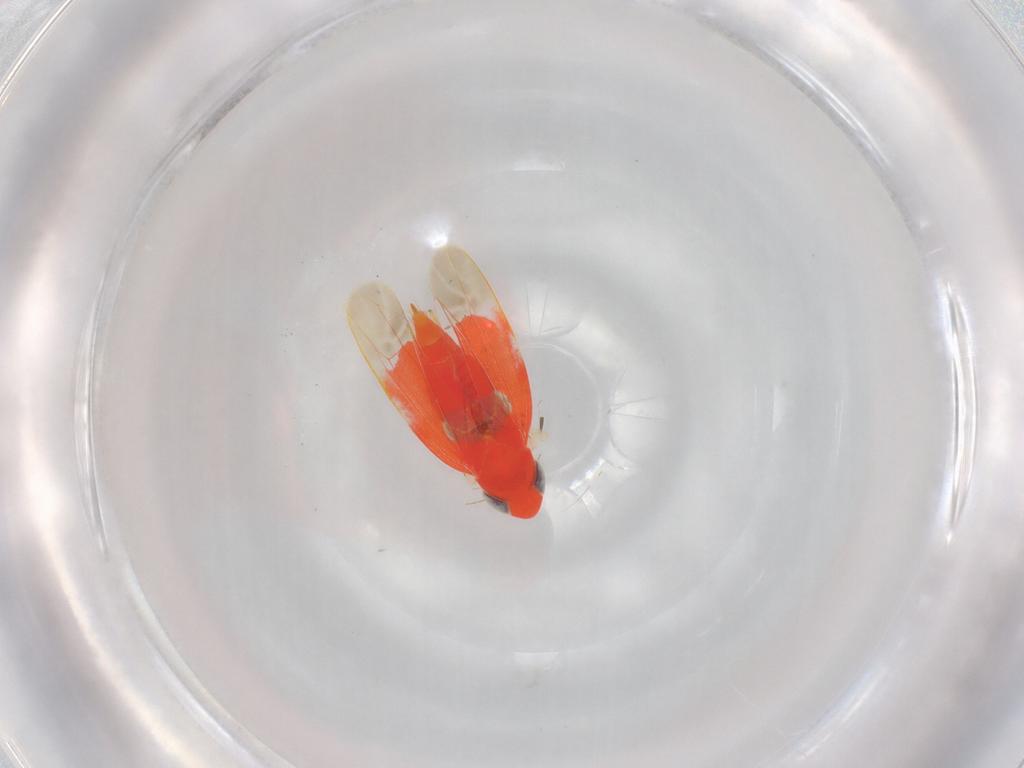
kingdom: Animalia
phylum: Arthropoda
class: Insecta
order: Hemiptera
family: Cicadellidae
